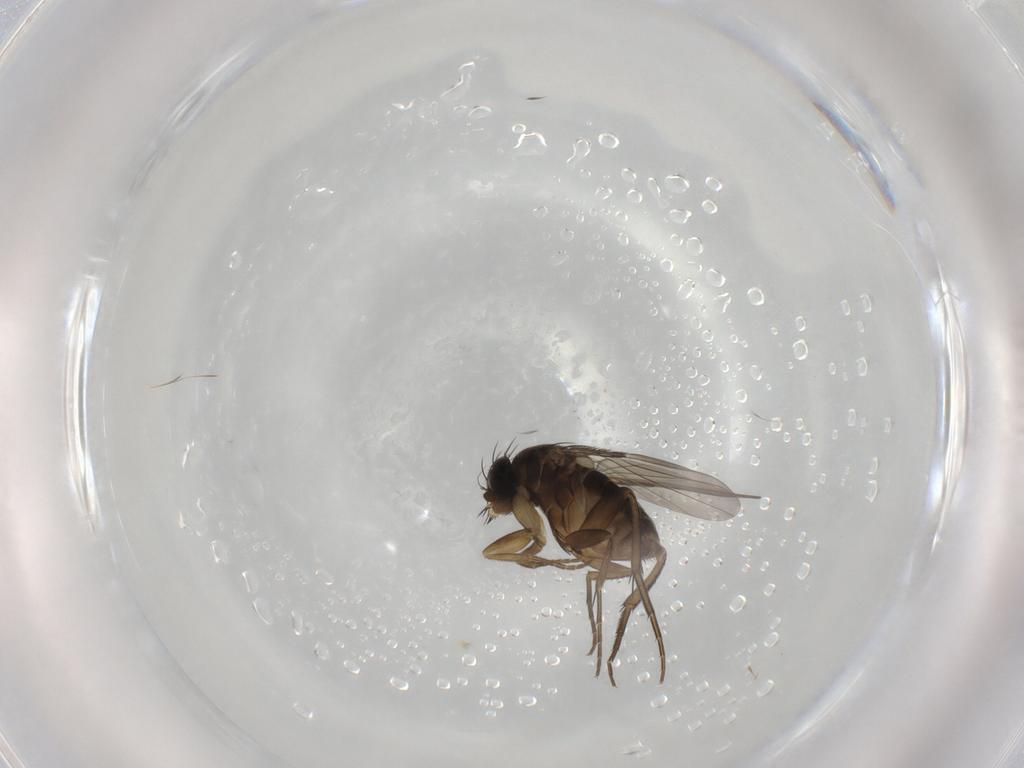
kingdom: Animalia
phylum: Arthropoda
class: Insecta
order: Diptera
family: Phoridae
